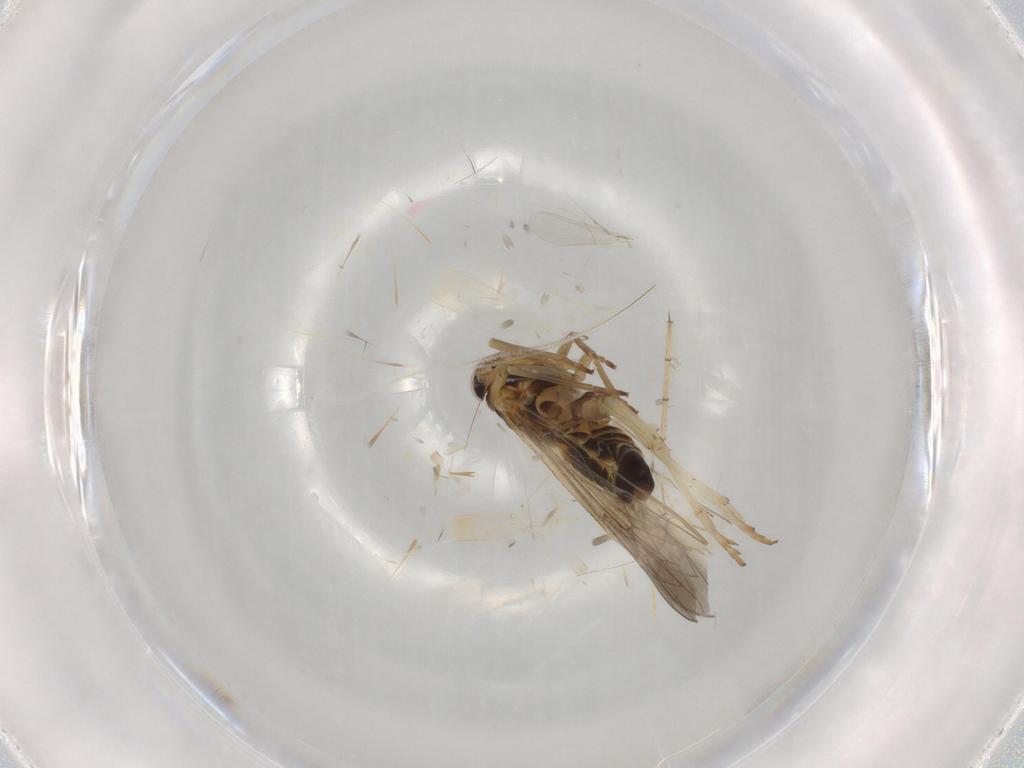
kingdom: Animalia
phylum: Arthropoda
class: Insecta
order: Hemiptera
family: Delphacidae
